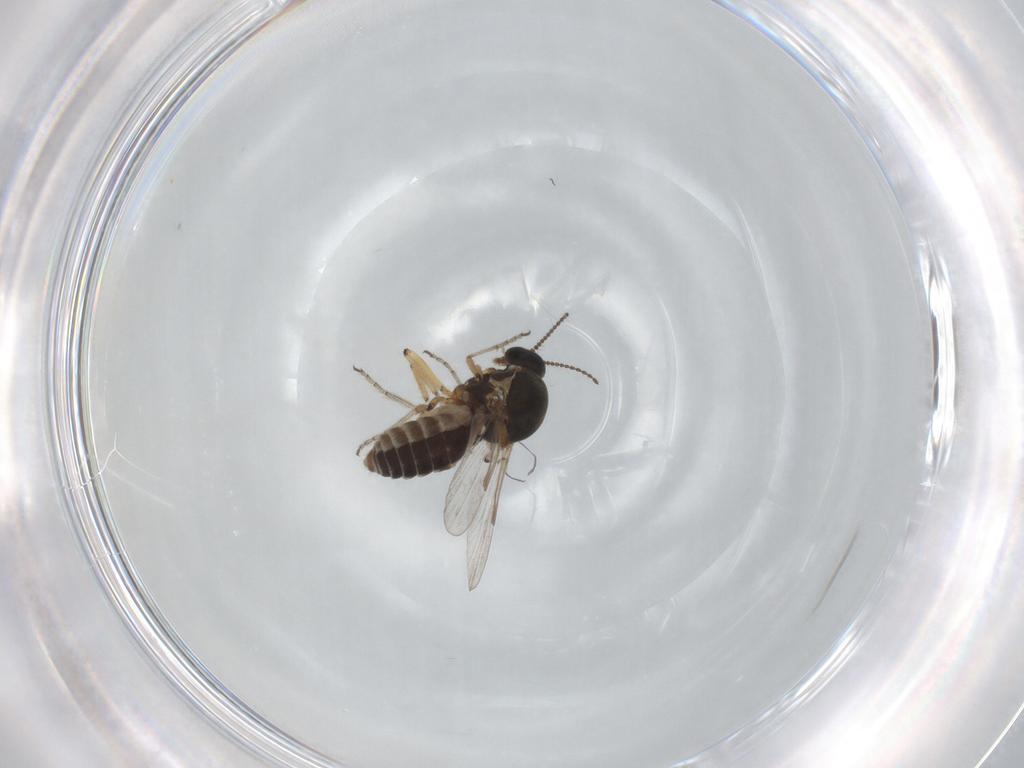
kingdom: Animalia
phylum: Arthropoda
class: Insecta
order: Diptera
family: Ceratopogonidae
